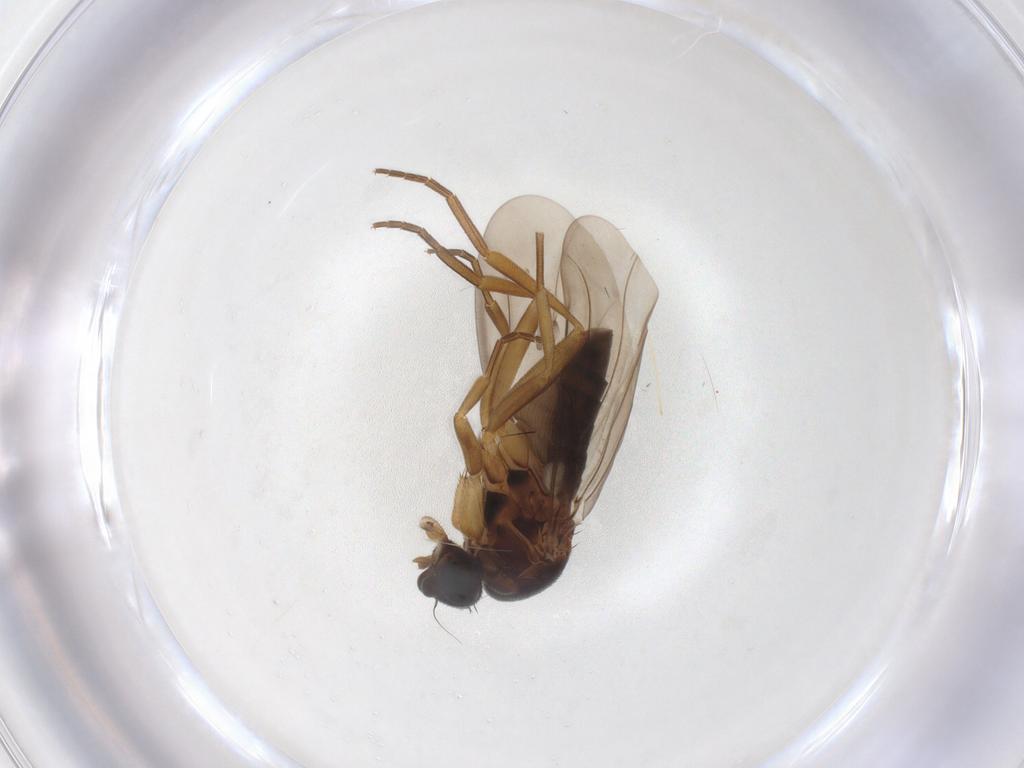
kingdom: Animalia
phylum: Arthropoda
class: Insecta
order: Diptera
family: Phoridae
